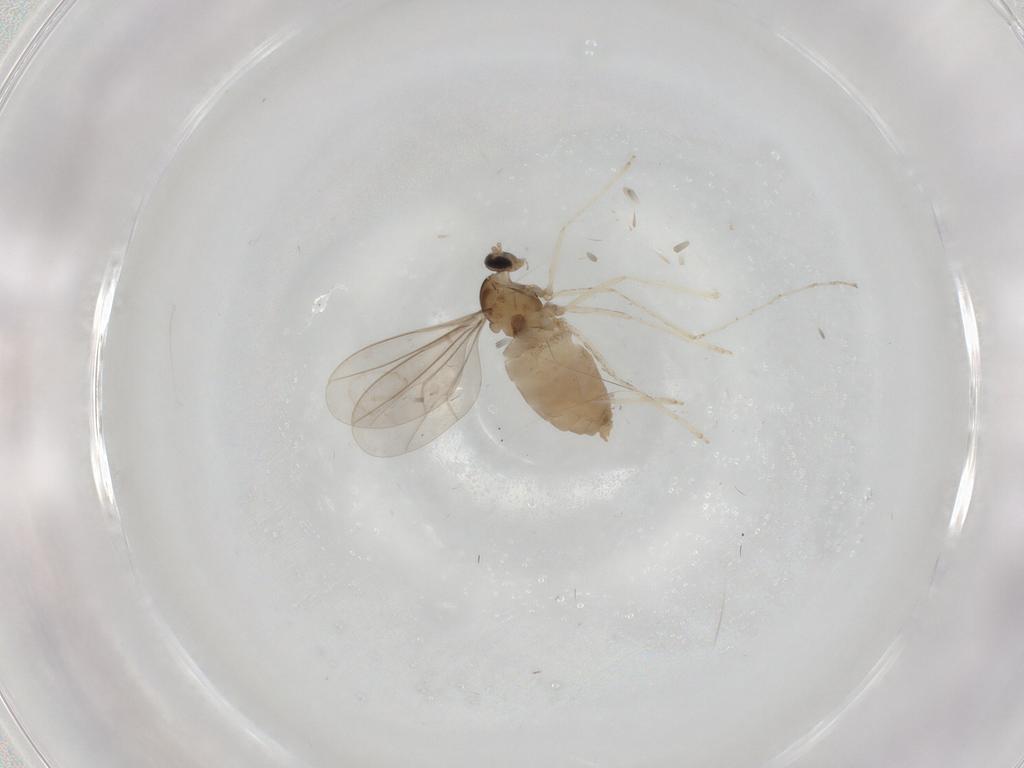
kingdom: Animalia
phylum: Arthropoda
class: Insecta
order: Diptera
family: Cecidomyiidae
